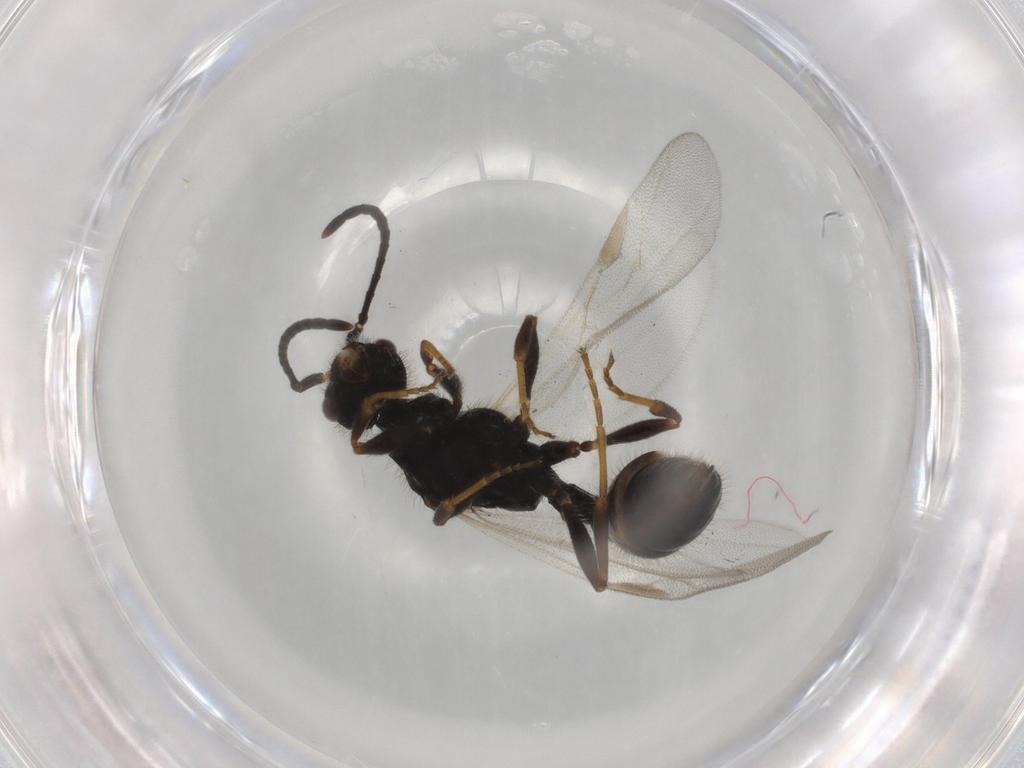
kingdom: Animalia
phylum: Arthropoda
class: Insecta
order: Hymenoptera
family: Formicidae
